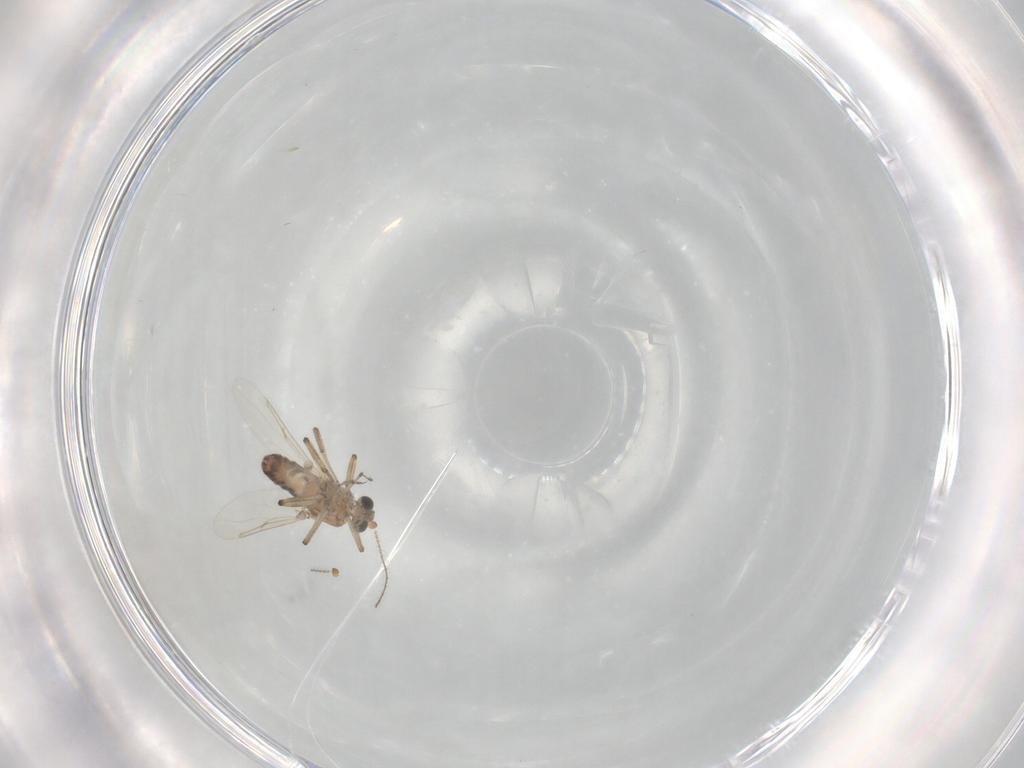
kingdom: Animalia
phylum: Arthropoda
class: Insecta
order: Diptera
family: Ceratopogonidae
